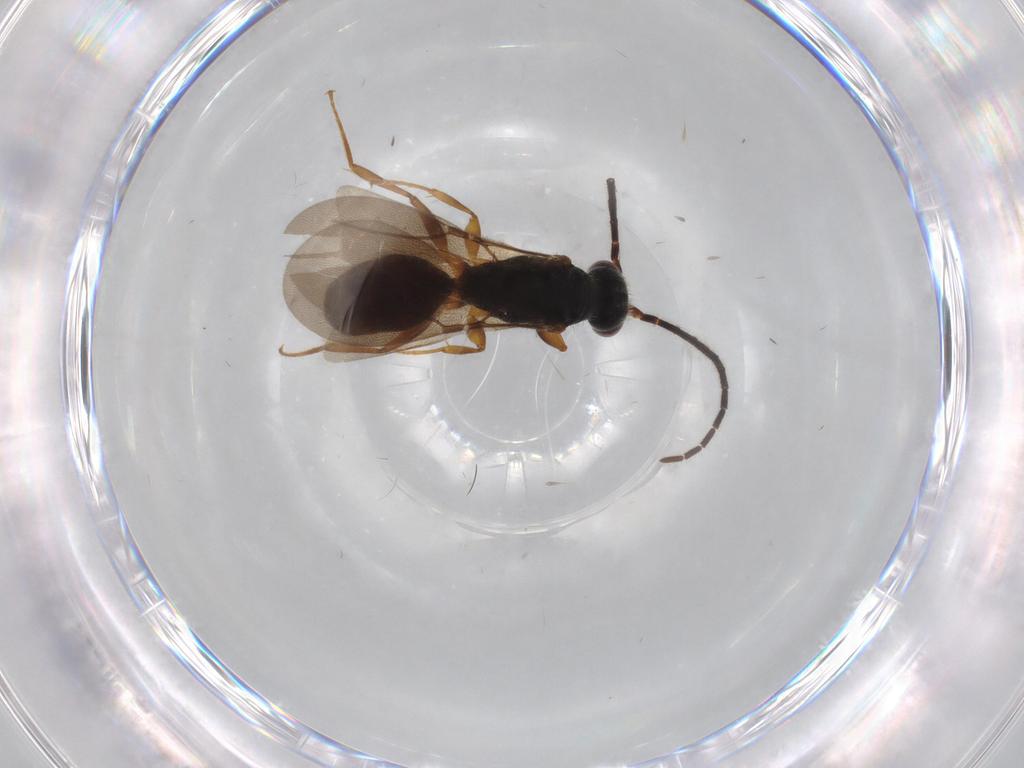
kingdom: Animalia
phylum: Arthropoda
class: Insecta
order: Hymenoptera
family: Bethylidae
